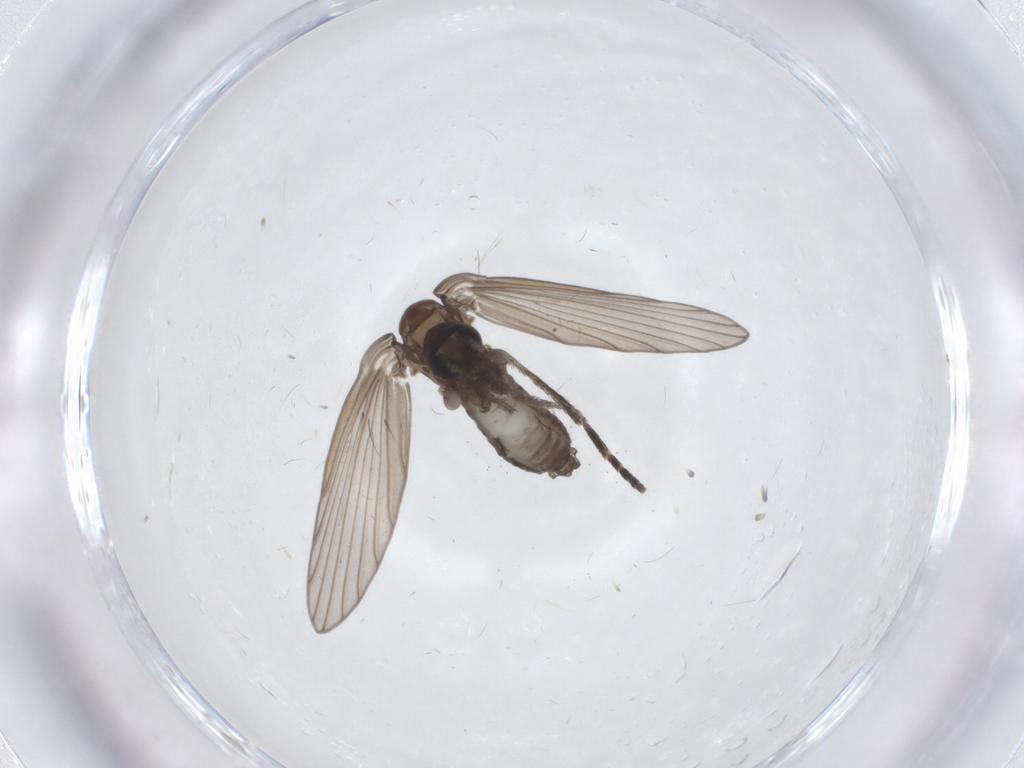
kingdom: Animalia
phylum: Arthropoda
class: Insecta
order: Diptera
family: Psychodidae
